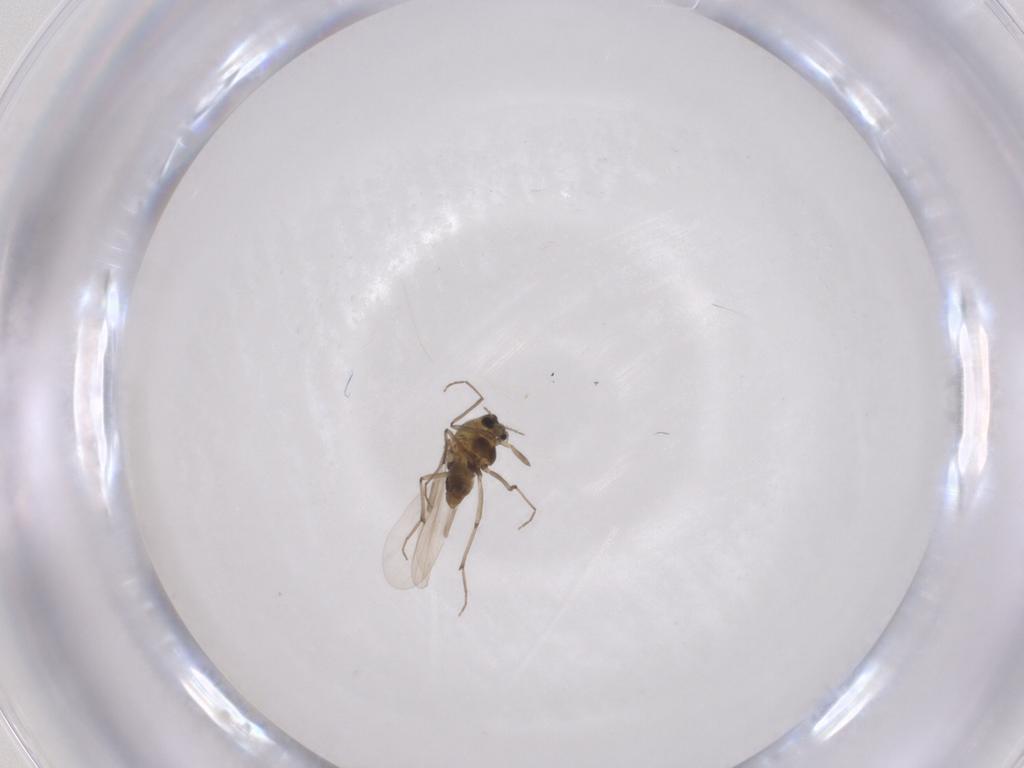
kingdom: Animalia
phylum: Arthropoda
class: Insecta
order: Diptera
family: Chironomidae
